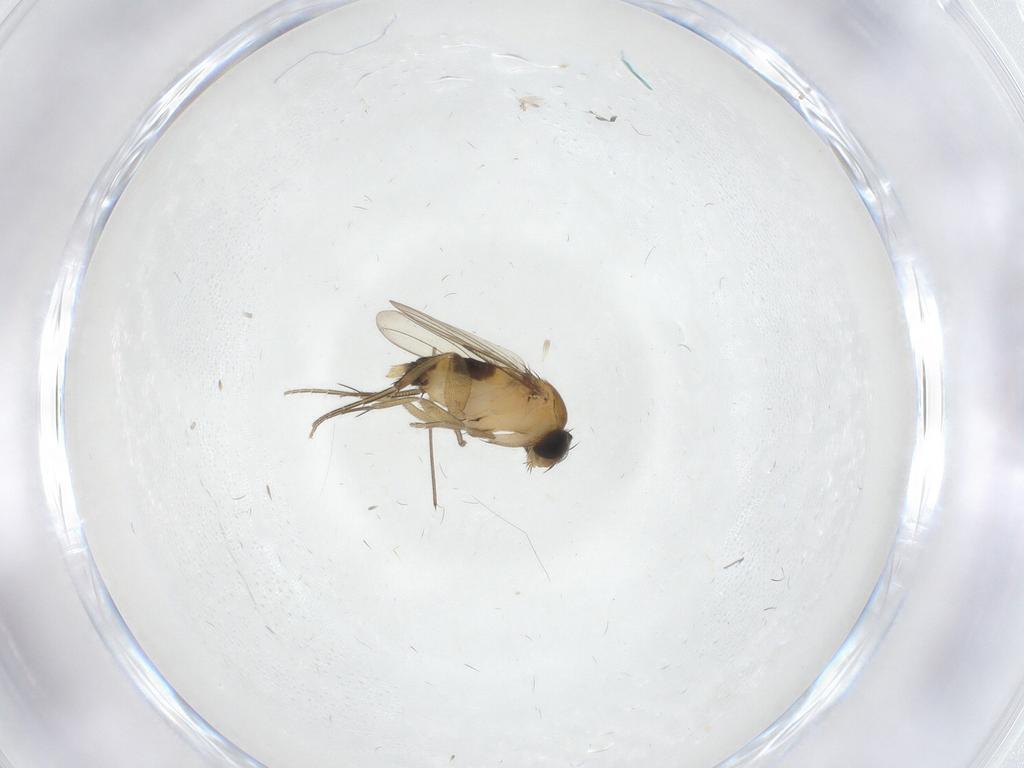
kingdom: Animalia
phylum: Arthropoda
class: Insecta
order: Diptera
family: Phoridae
